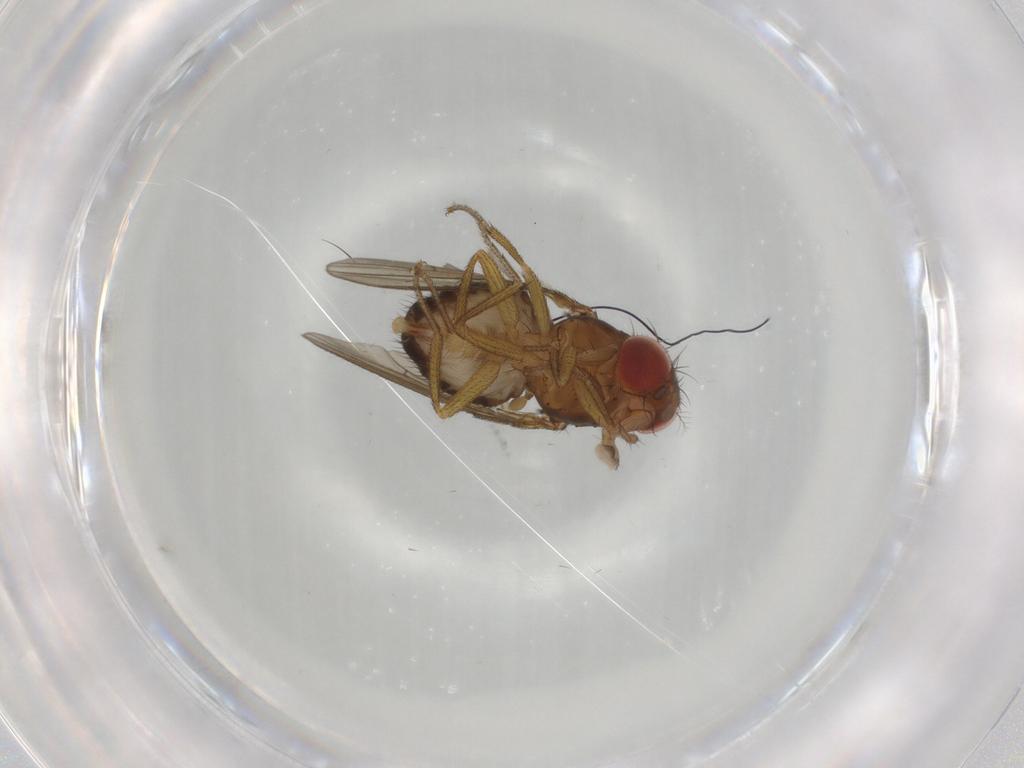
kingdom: Animalia
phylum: Arthropoda
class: Insecta
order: Diptera
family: Drosophilidae
